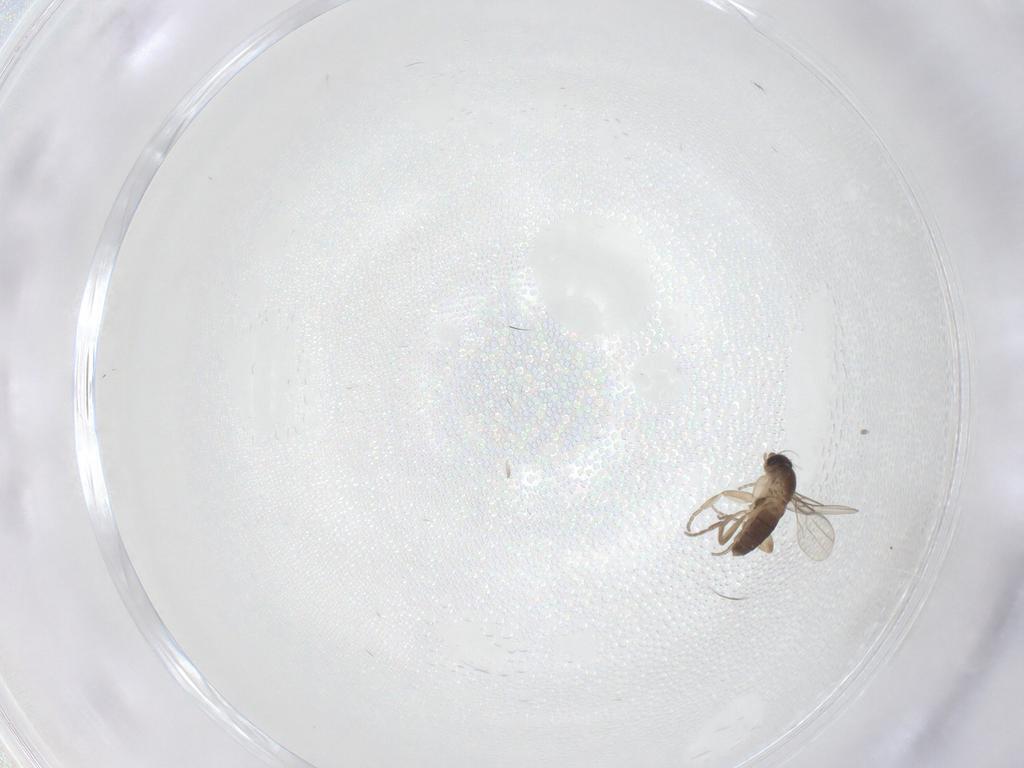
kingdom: Animalia
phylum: Arthropoda
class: Insecta
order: Diptera
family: Phoridae
